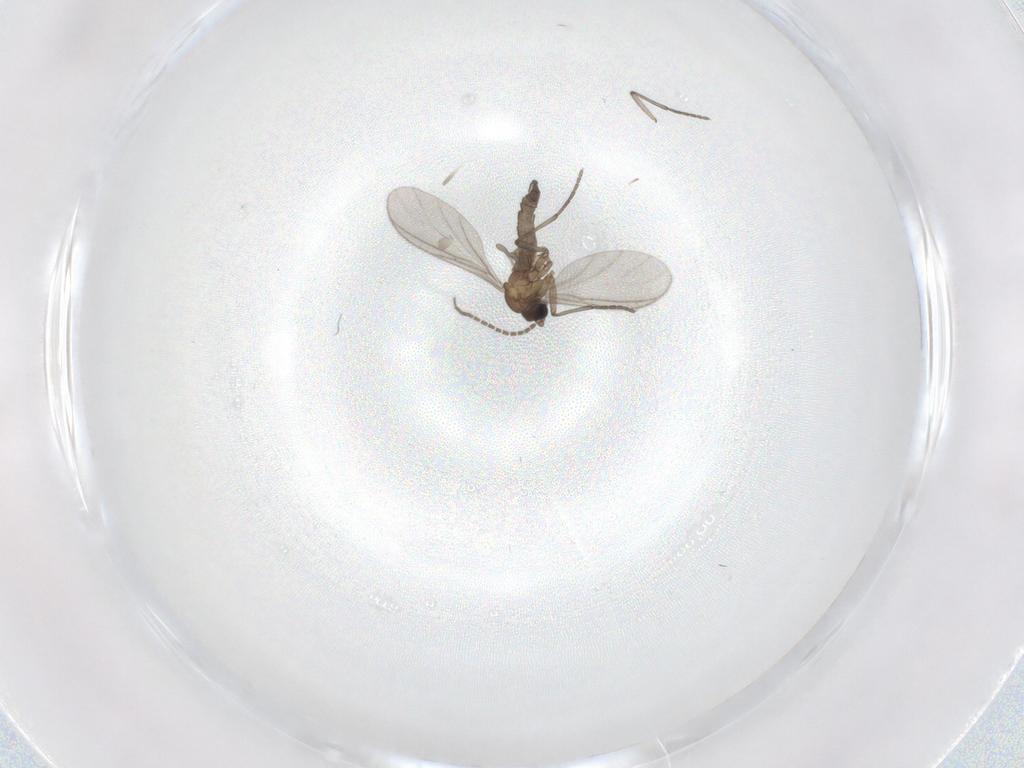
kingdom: Animalia
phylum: Arthropoda
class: Insecta
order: Diptera
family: Sciaridae
